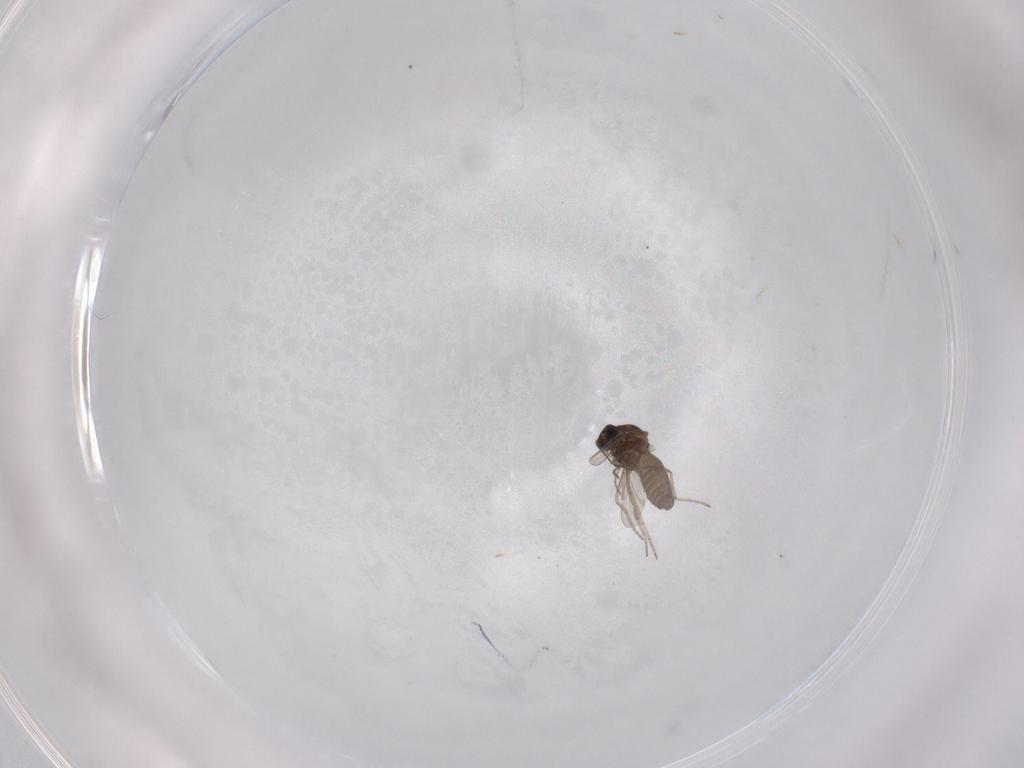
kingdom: Animalia
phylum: Arthropoda
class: Insecta
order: Diptera
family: Ceratopogonidae
